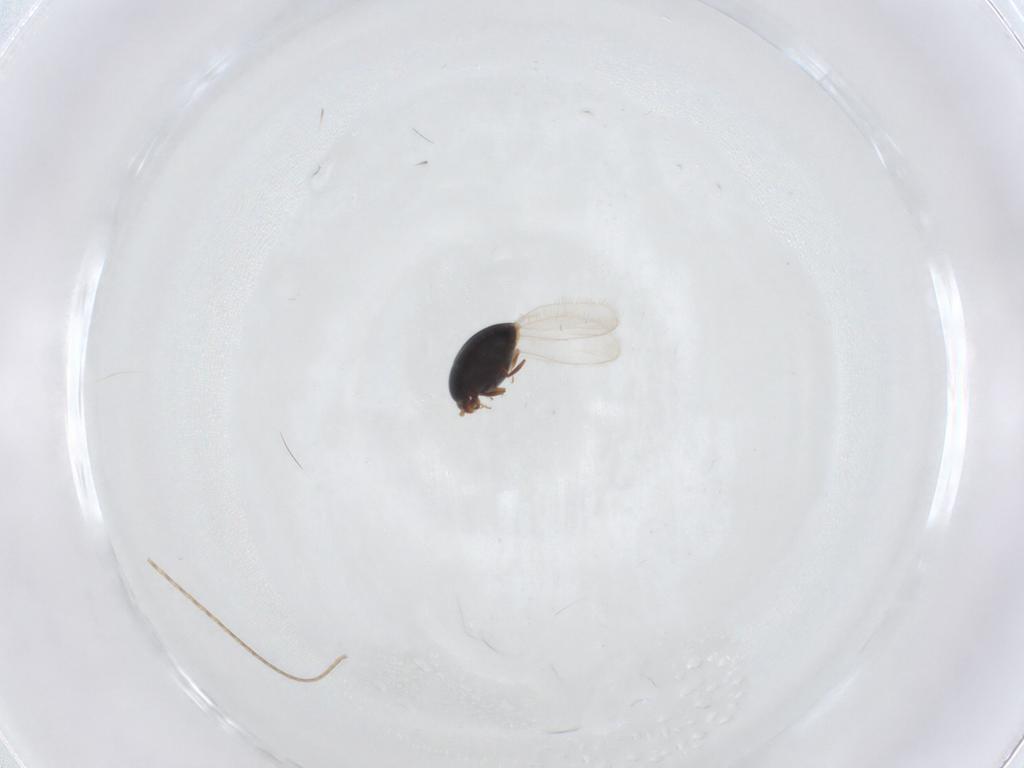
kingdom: Animalia
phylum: Arthropoda
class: Insecta
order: Coleoptera
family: Corylophidae
